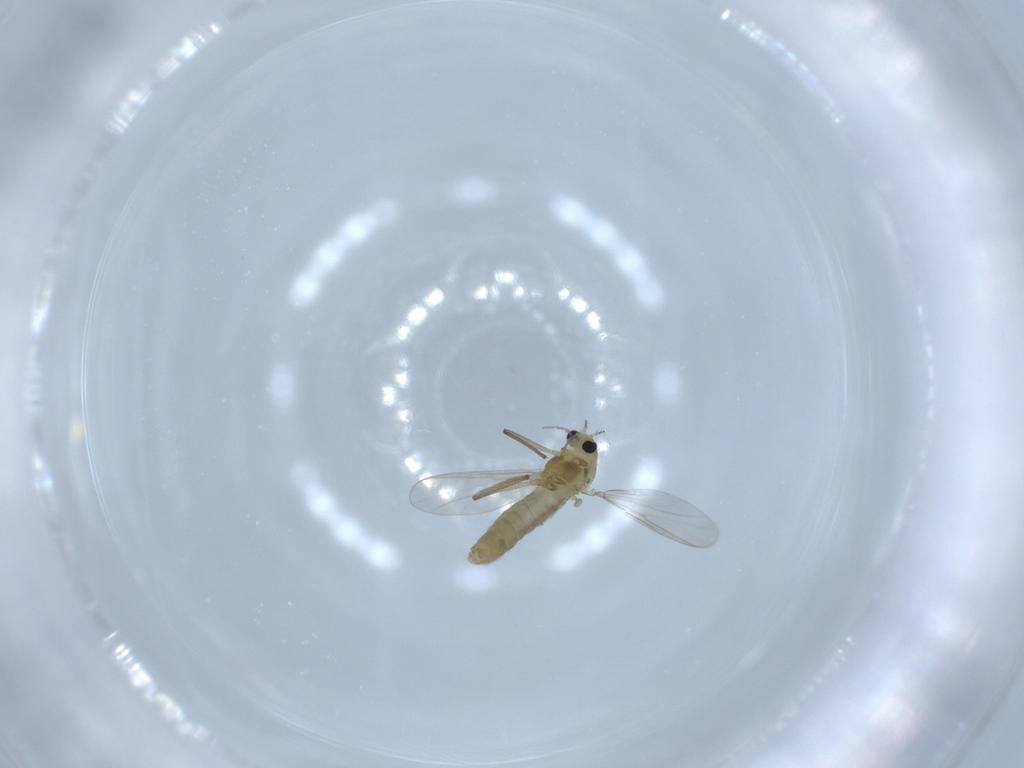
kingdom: Animalia
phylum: Arthropoda
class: Insecta
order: Diptera
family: Chironomidae
